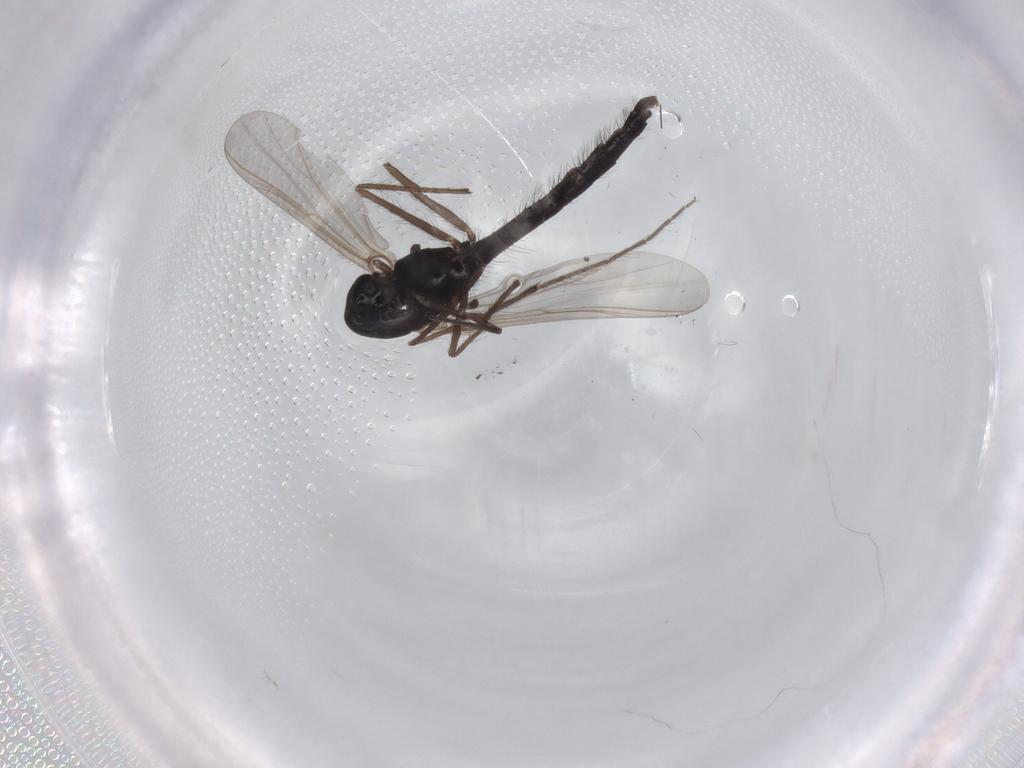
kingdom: Animalia
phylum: Arthropoda
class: Insecta
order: Diptera
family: Chironomidae
